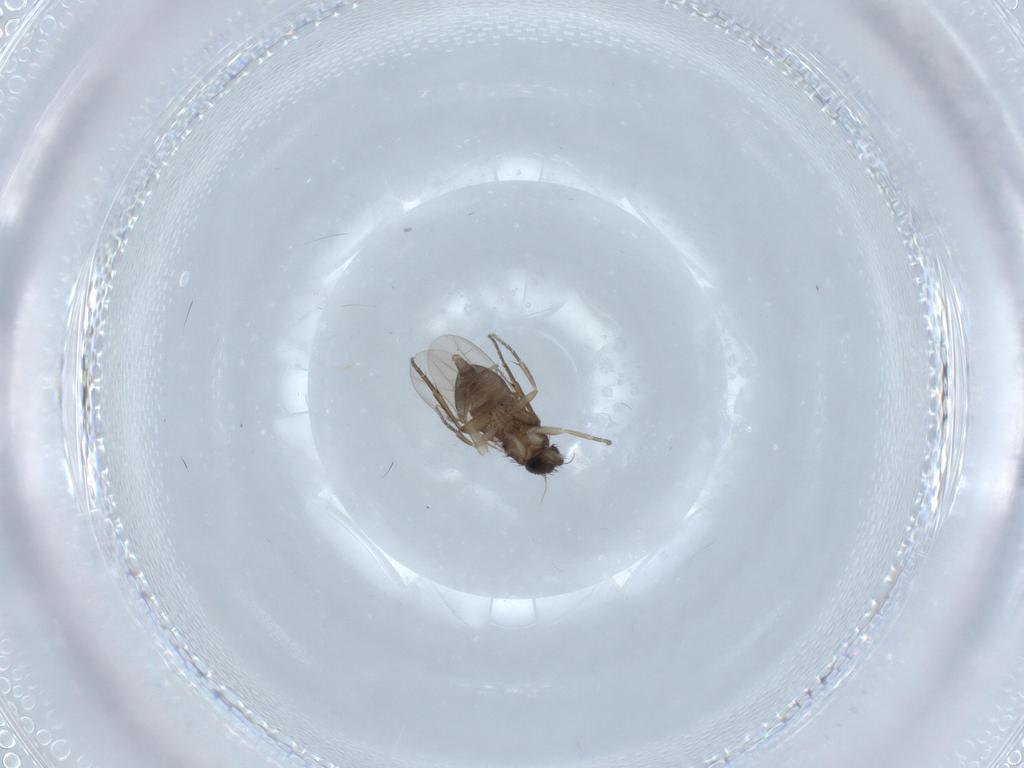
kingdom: Animalia
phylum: Arthropoda
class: Insecta
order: Diptera
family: Phoridae
